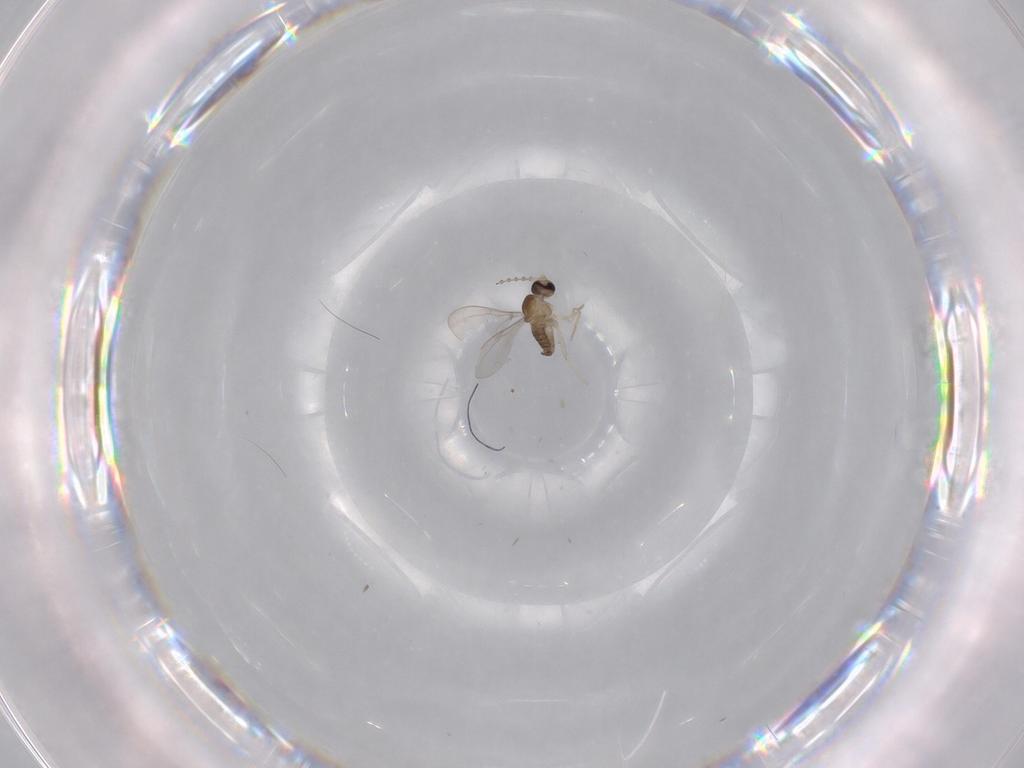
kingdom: Animalia
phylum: Arthropoda
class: Insecta
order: Diptera
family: Cecidomyiidae
